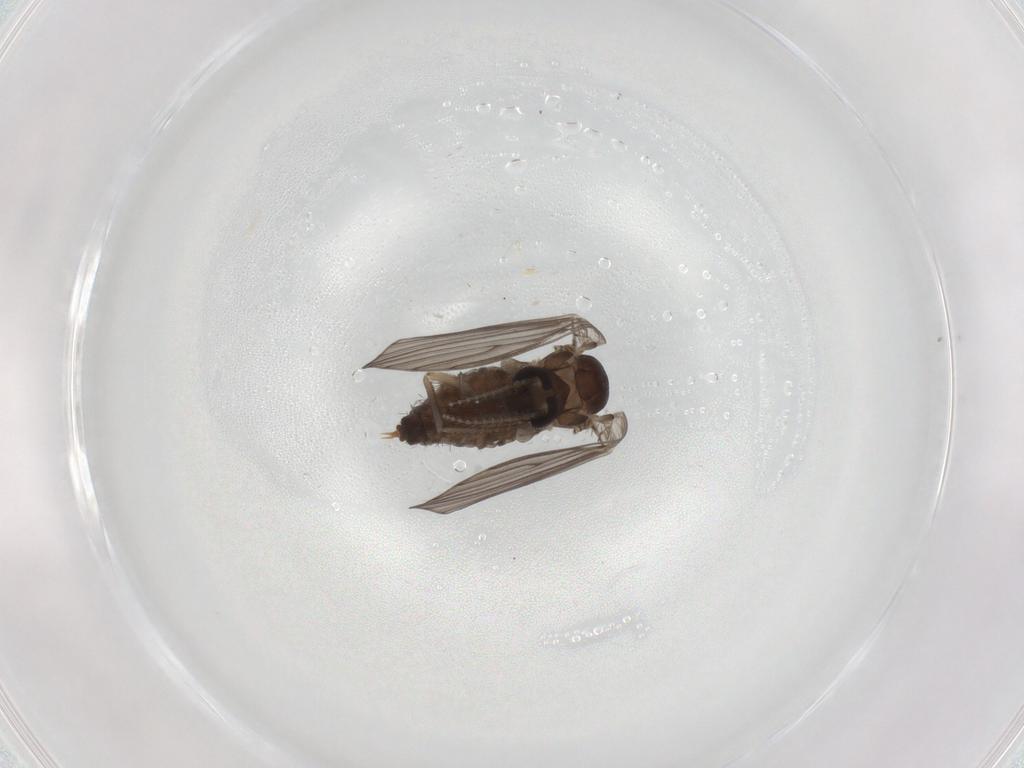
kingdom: Animalia
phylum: Arthropoda
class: Insecta
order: Diptera
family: Psychodidae
